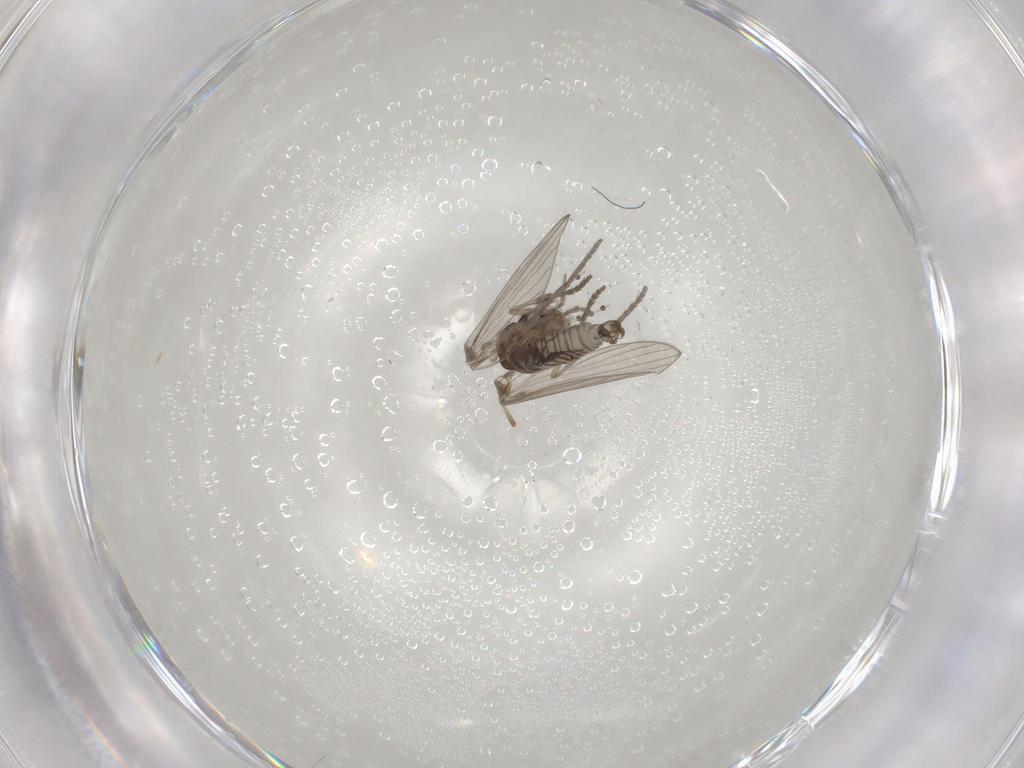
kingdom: Animalia
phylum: Arthropoda
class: Insecta
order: Diptera
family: Psychodidae
